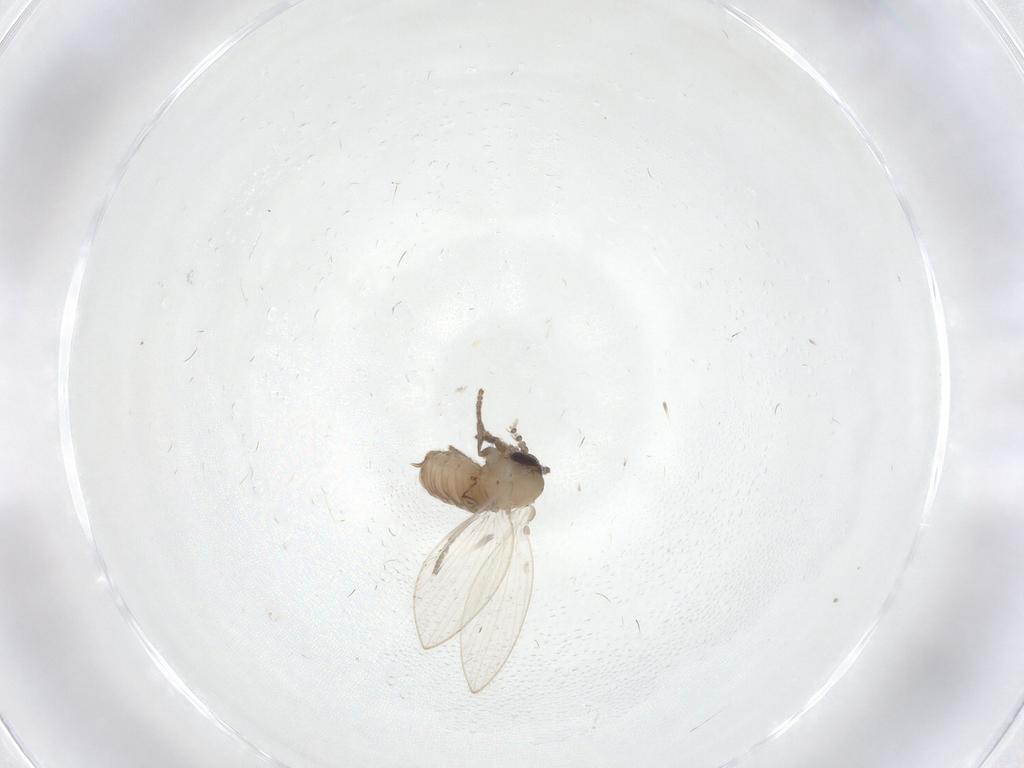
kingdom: Animalia
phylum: Arthropoda
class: Insecta
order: Diptera
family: Psychodidae
